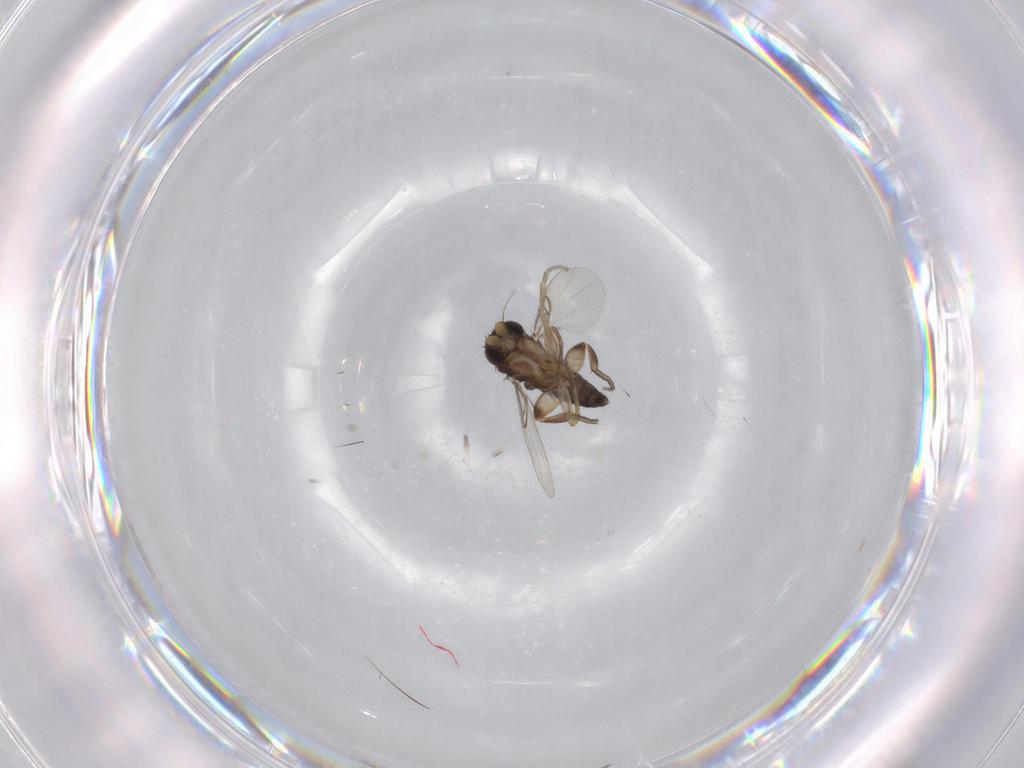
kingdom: Animalia
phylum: Arthropoda
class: Insecta
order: Diptera
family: Phoridae
